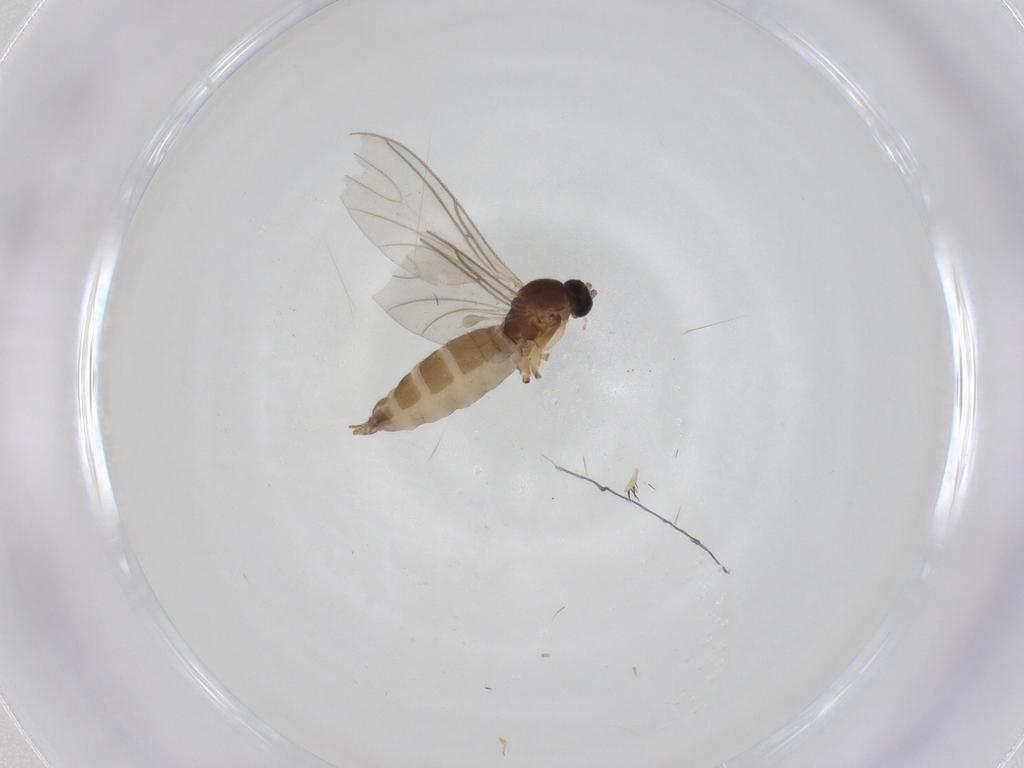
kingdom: Animalia
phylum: Arthropoda
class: Insecta
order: Diptera
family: Sciaridae
